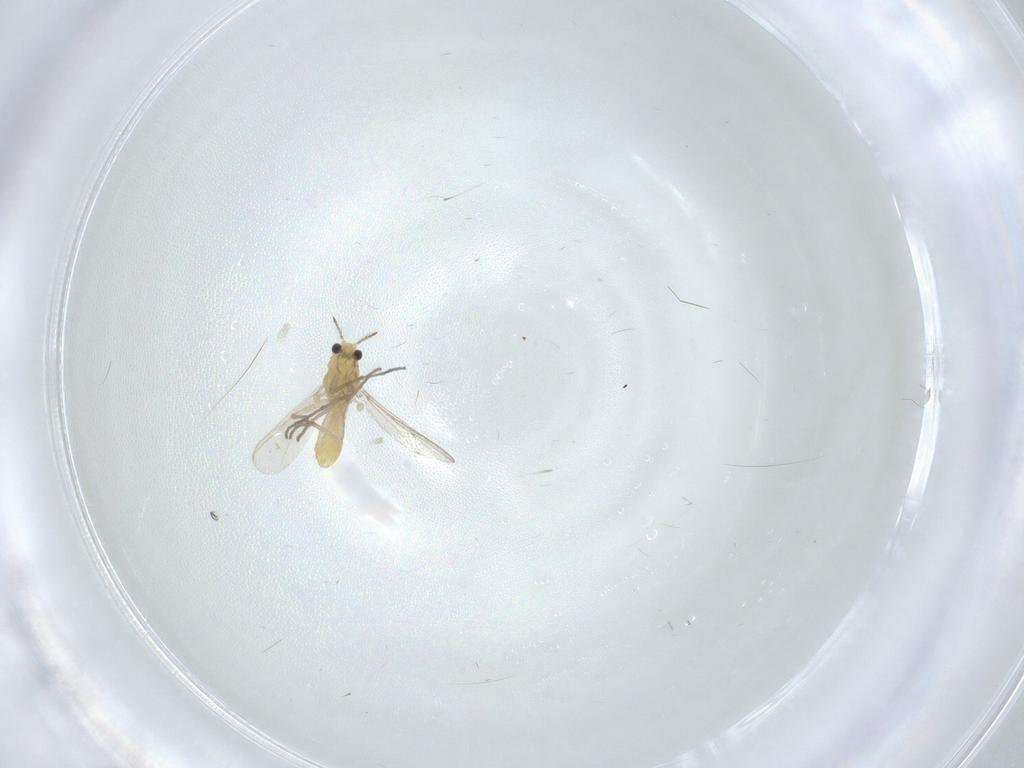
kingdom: Animalia
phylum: Arthropoda
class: Insecta
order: Diptera
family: Chironomidae
